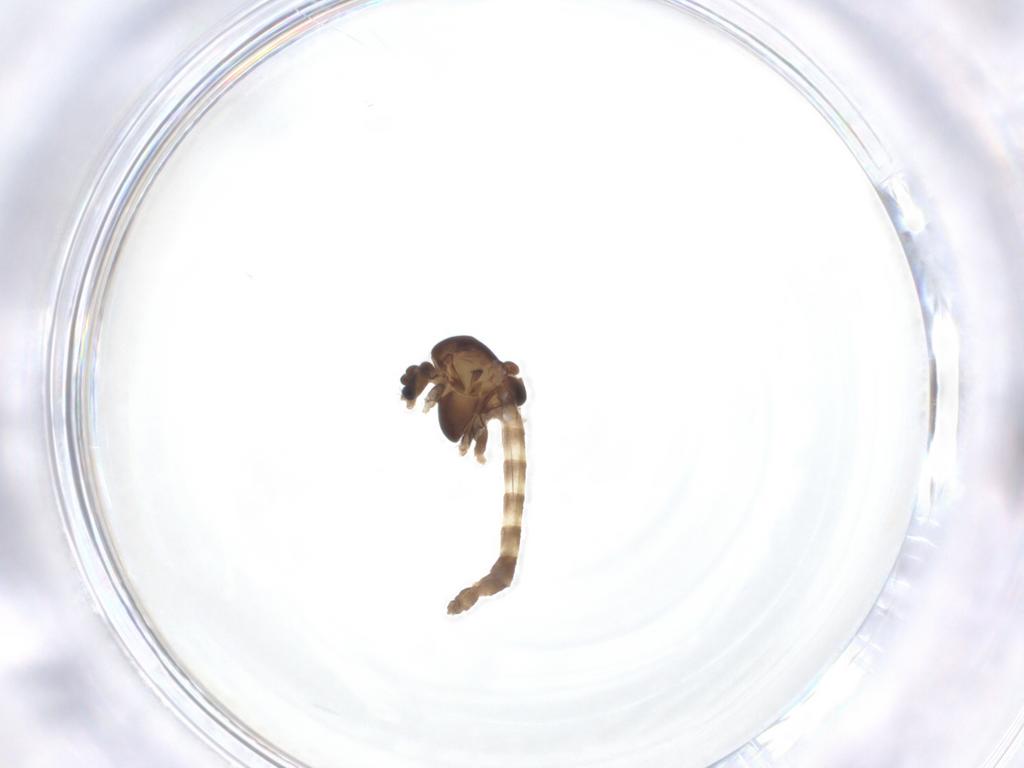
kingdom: Animalia
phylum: Arthropoda
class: Insecta
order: Diptera
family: Chironomidae
